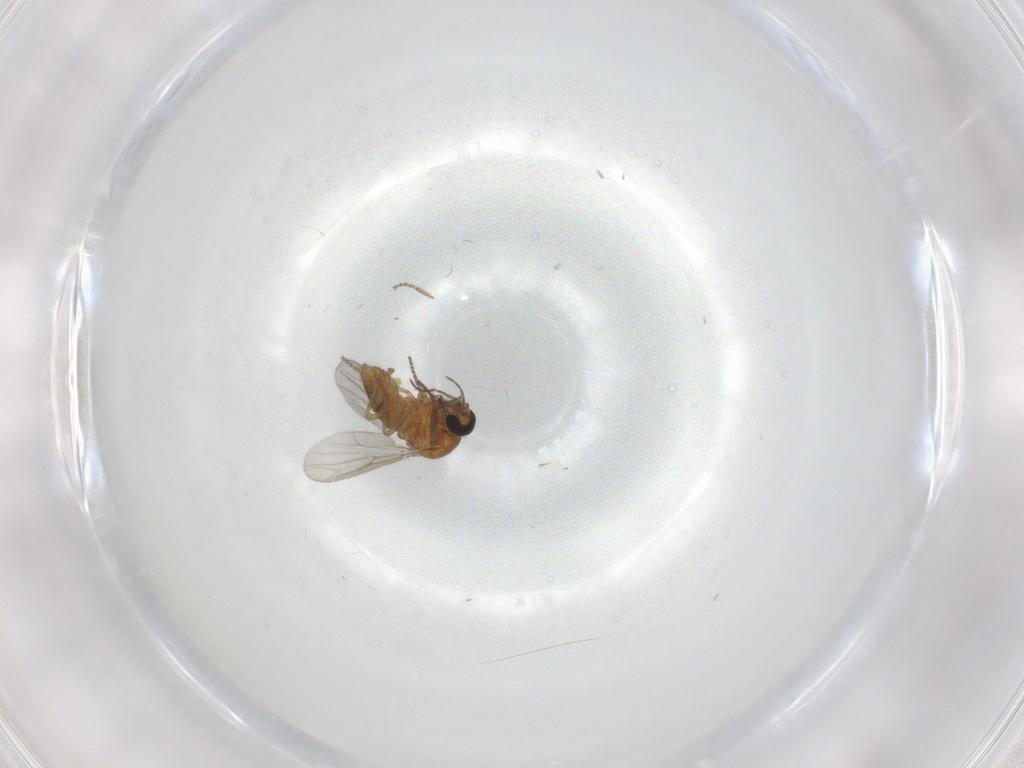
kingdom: Animalia
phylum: Arthropoda
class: Insecta
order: Diptera
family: Ceratopogonidae
